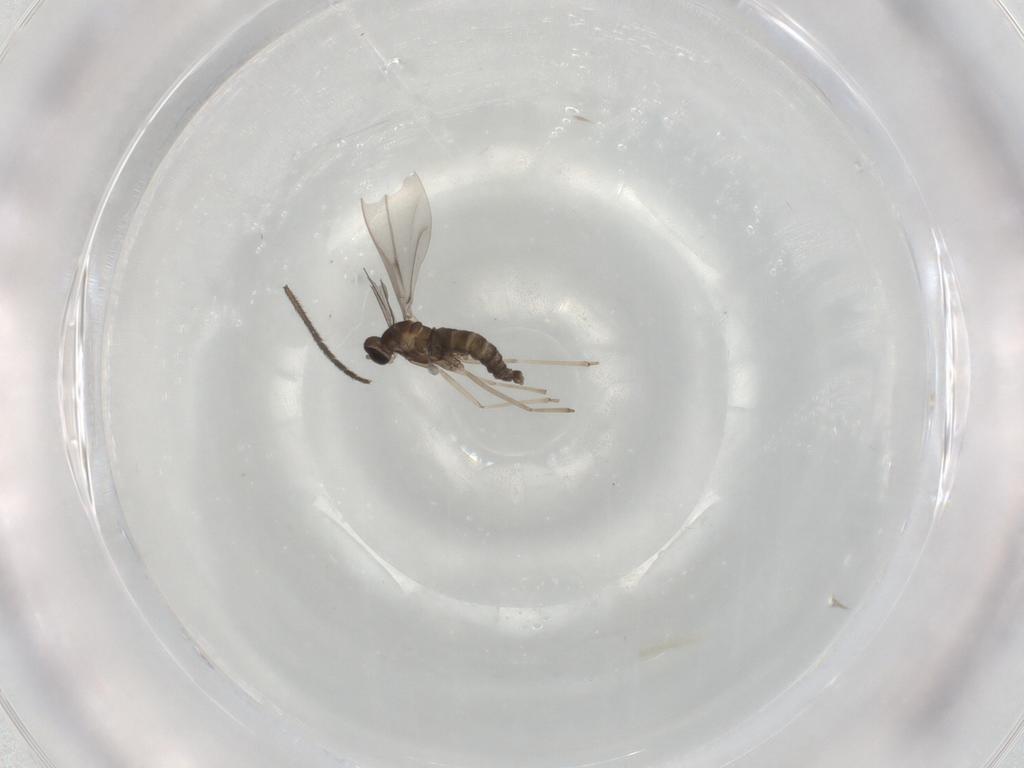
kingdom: Animalia
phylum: Arthropoda
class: Insecta
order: Diptera
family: Sciaridae
